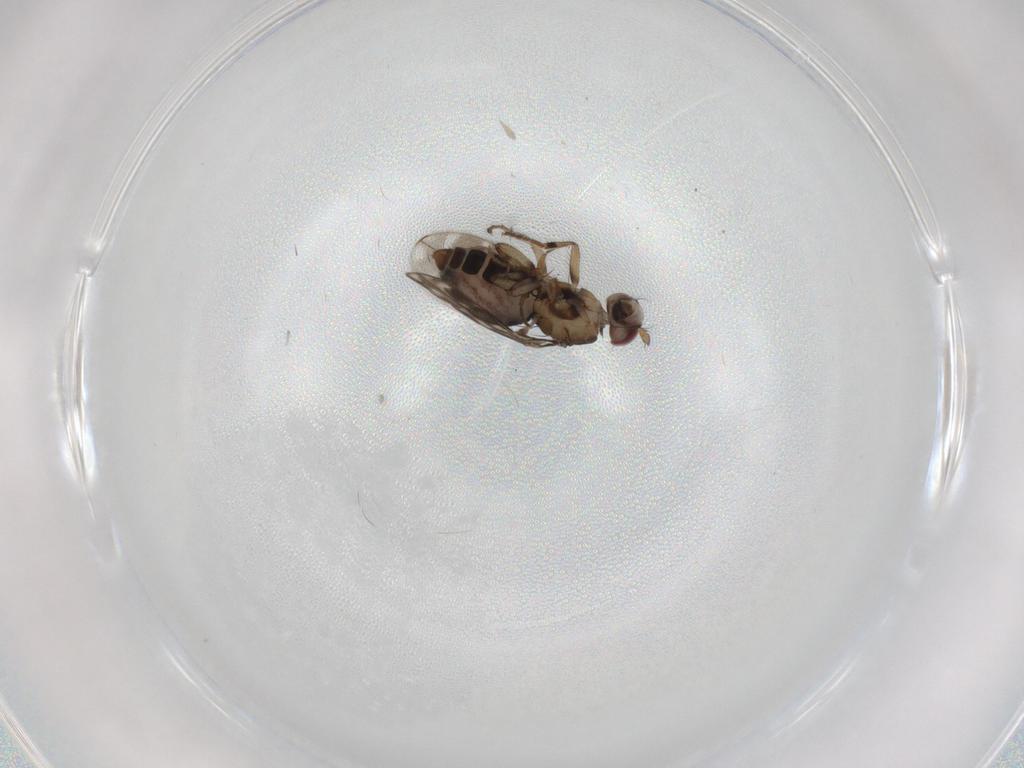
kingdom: Animalia
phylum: Arthropoda
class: Insecta
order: Diptera
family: Sphaeroceridae
